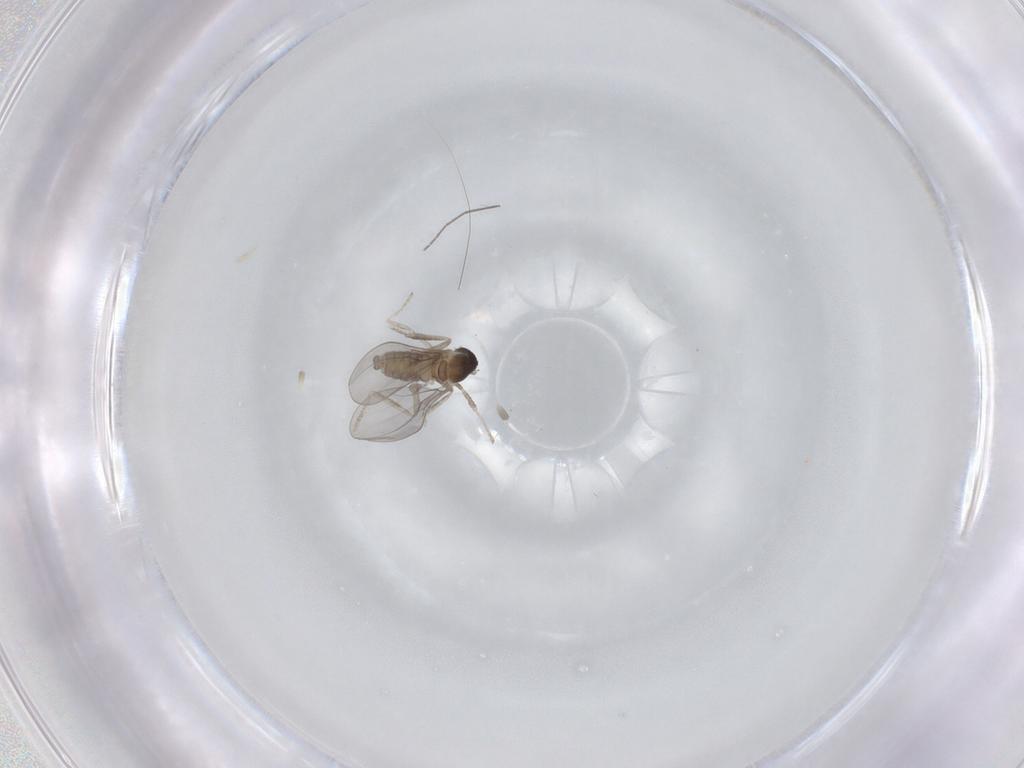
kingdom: Animalia
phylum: Arthropoda
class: Insecta
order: Diptera
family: Cecidomyiidae
